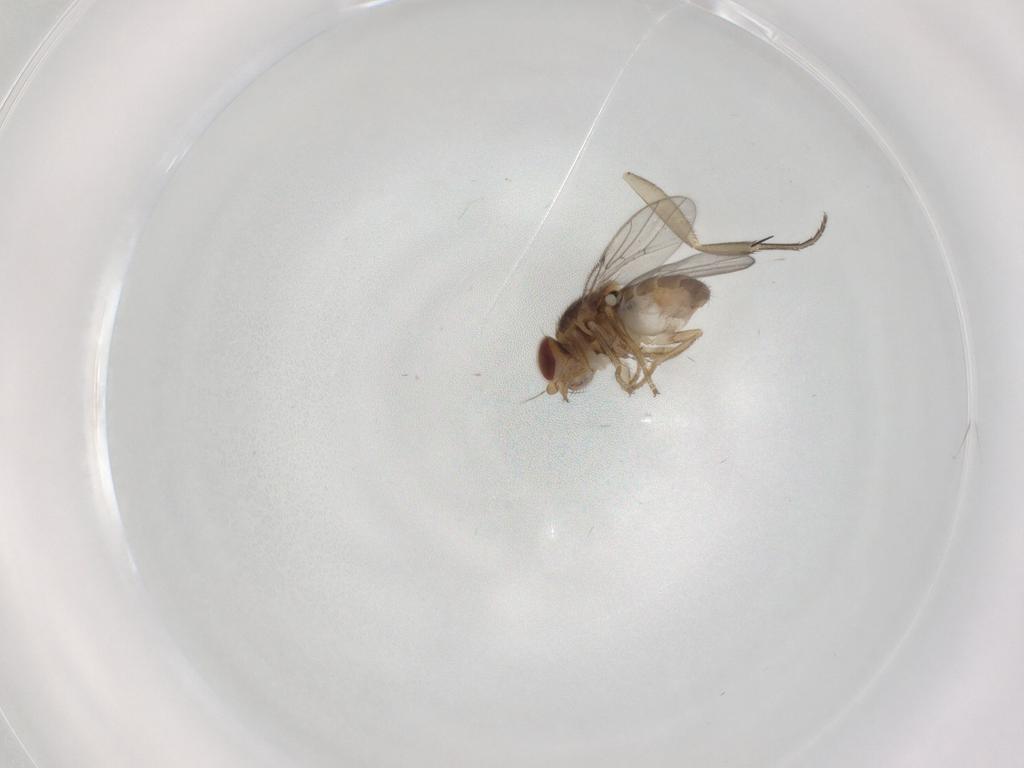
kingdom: Animalia
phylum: Arthropoda
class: Insecta
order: Diptera
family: Chloropidae
